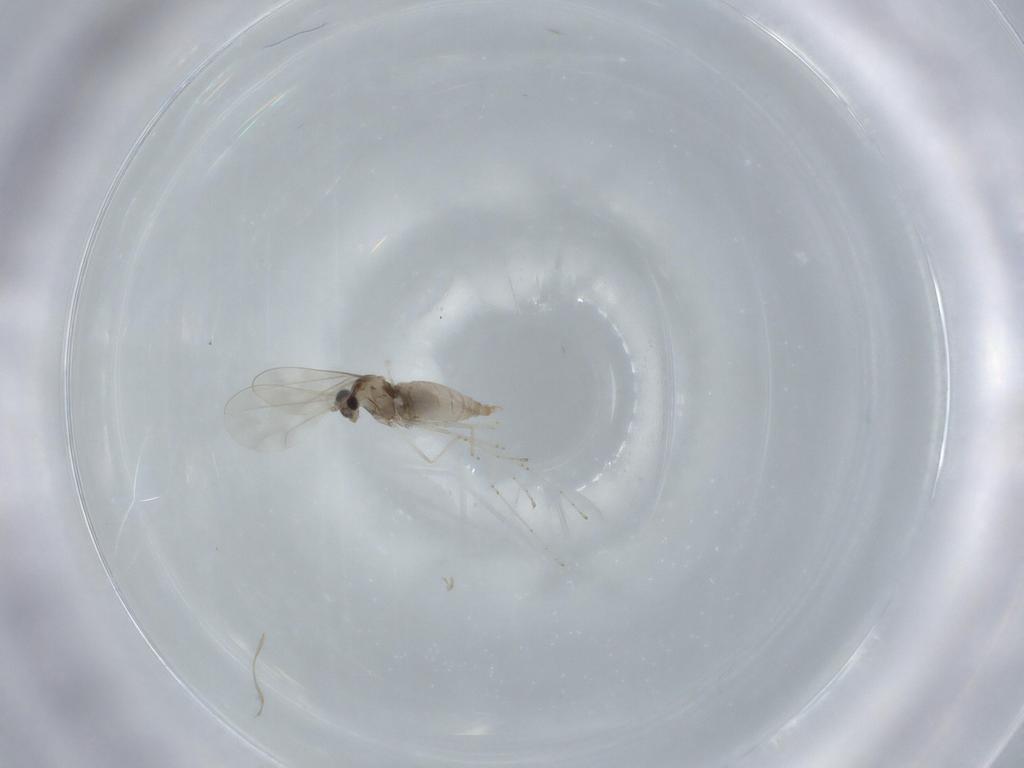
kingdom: Animalia
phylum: Arthropoda
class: Insecta
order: Diptera
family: Cecidomyiidae
